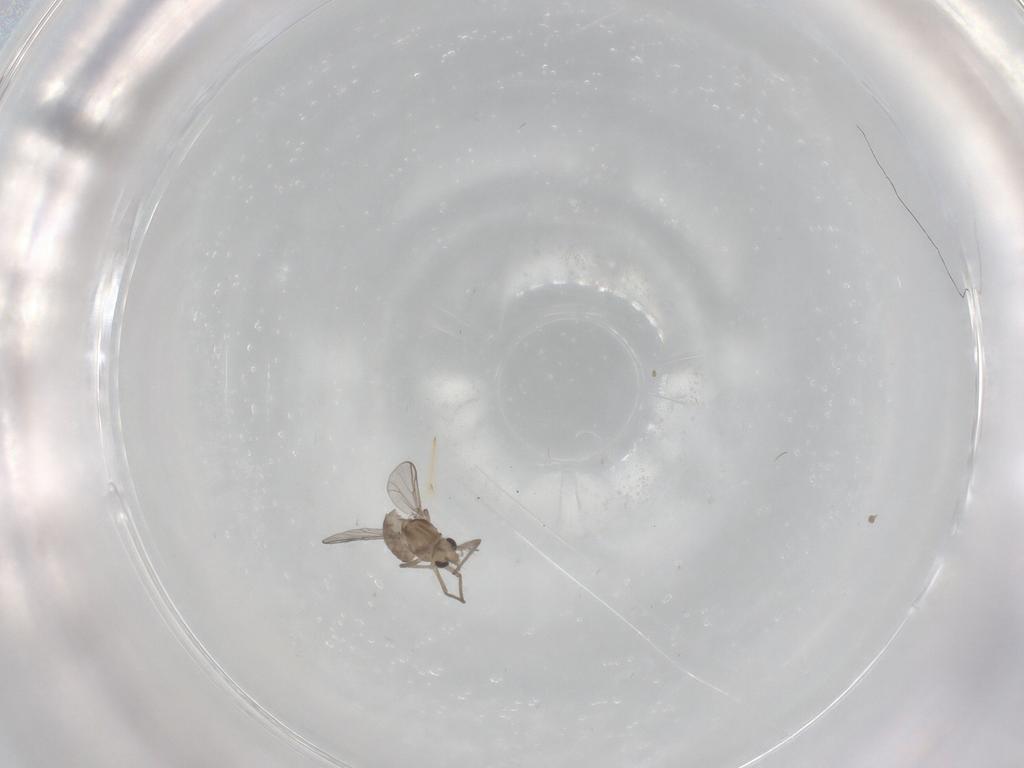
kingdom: Animalia
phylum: Arthropoda
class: Insecta
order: Diptera
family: Chironomidae
